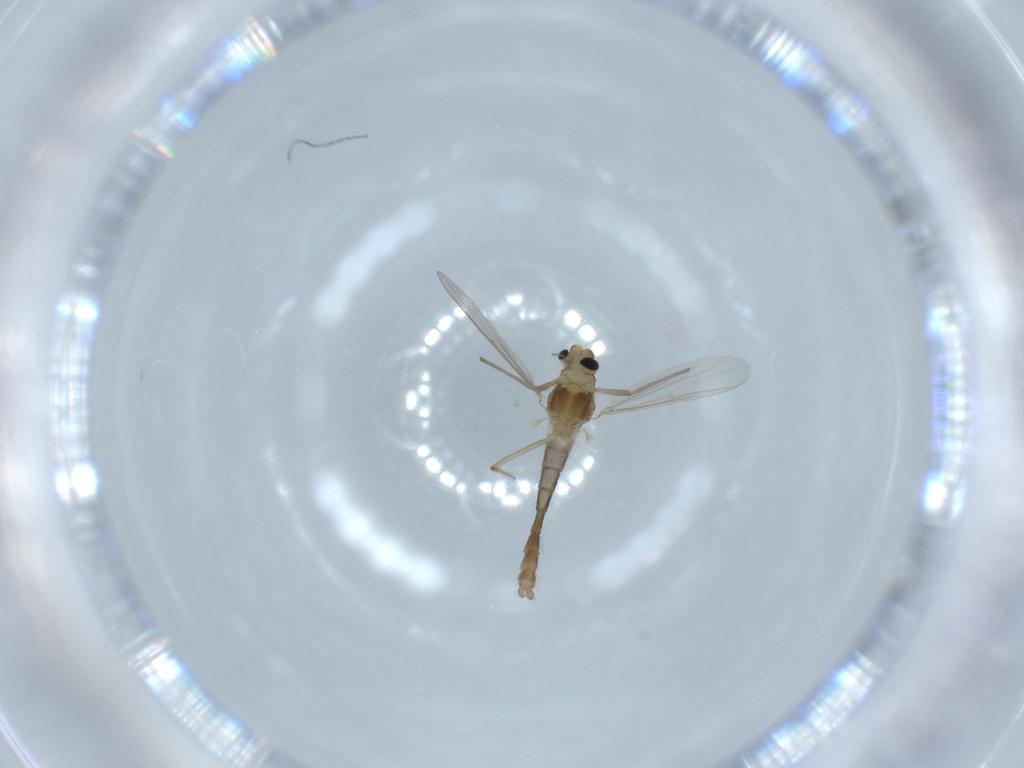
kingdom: Animalia
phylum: Arthropoda
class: Insecta
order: Diptera
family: Chironomidae
